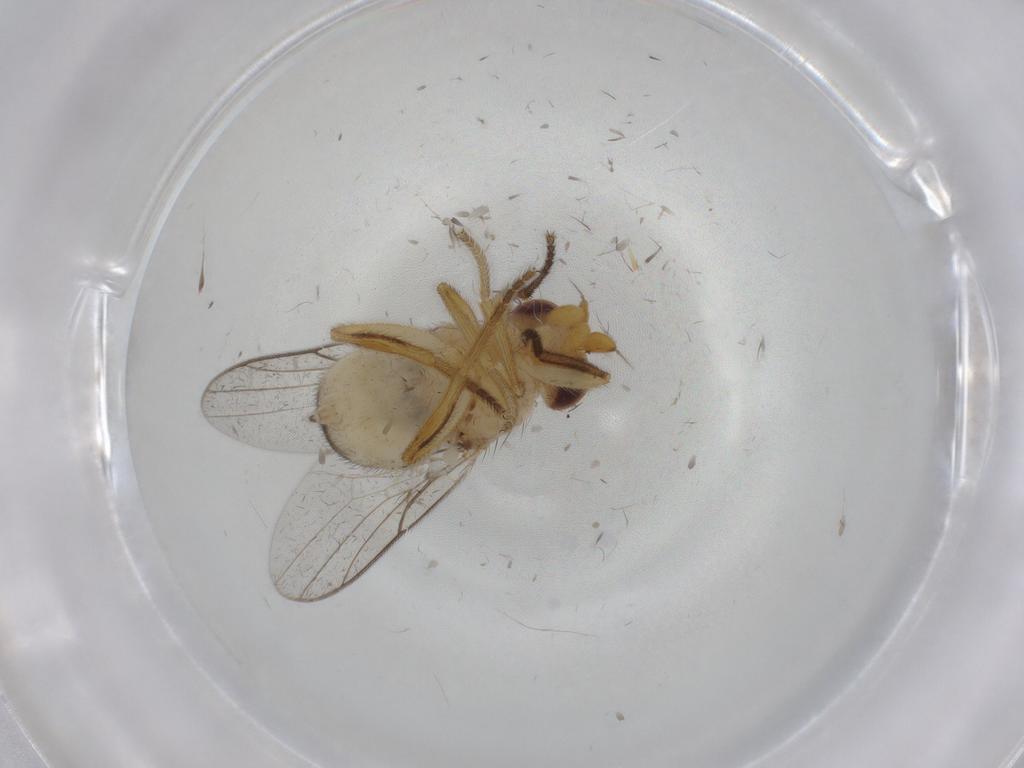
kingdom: Animalia
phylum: Arthropoda
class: Insecta
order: Diptera
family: Chloropidae
